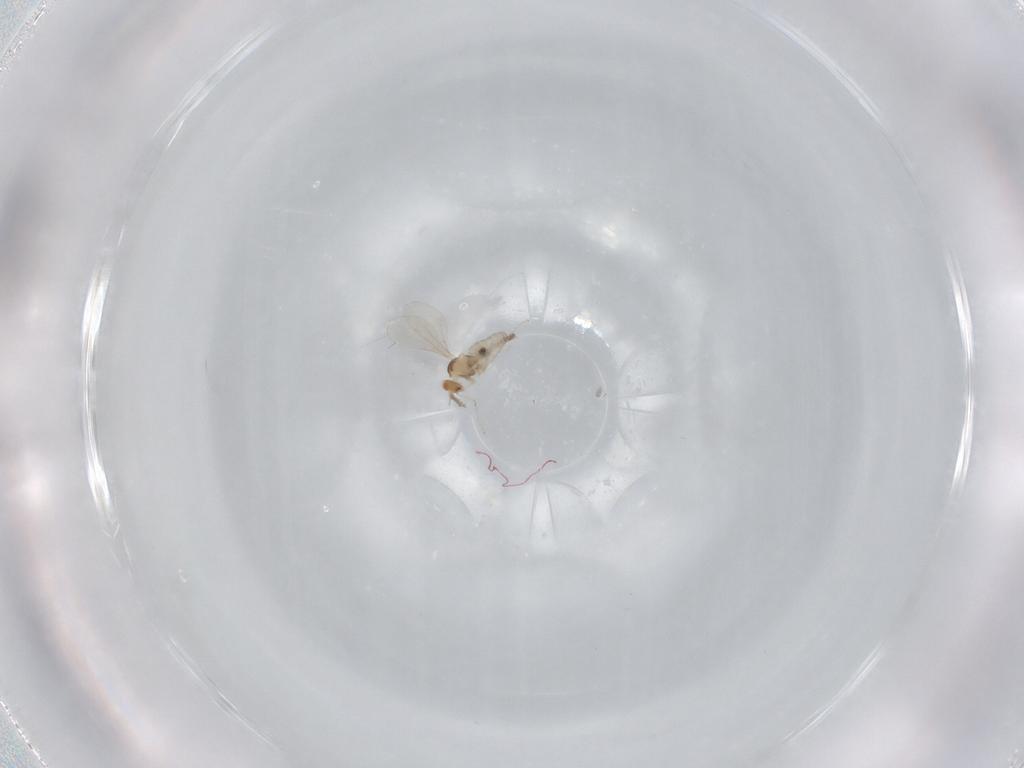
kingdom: Animalia
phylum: Arthropoda
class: Insecta
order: Diptera
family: Cecidomyiidae
